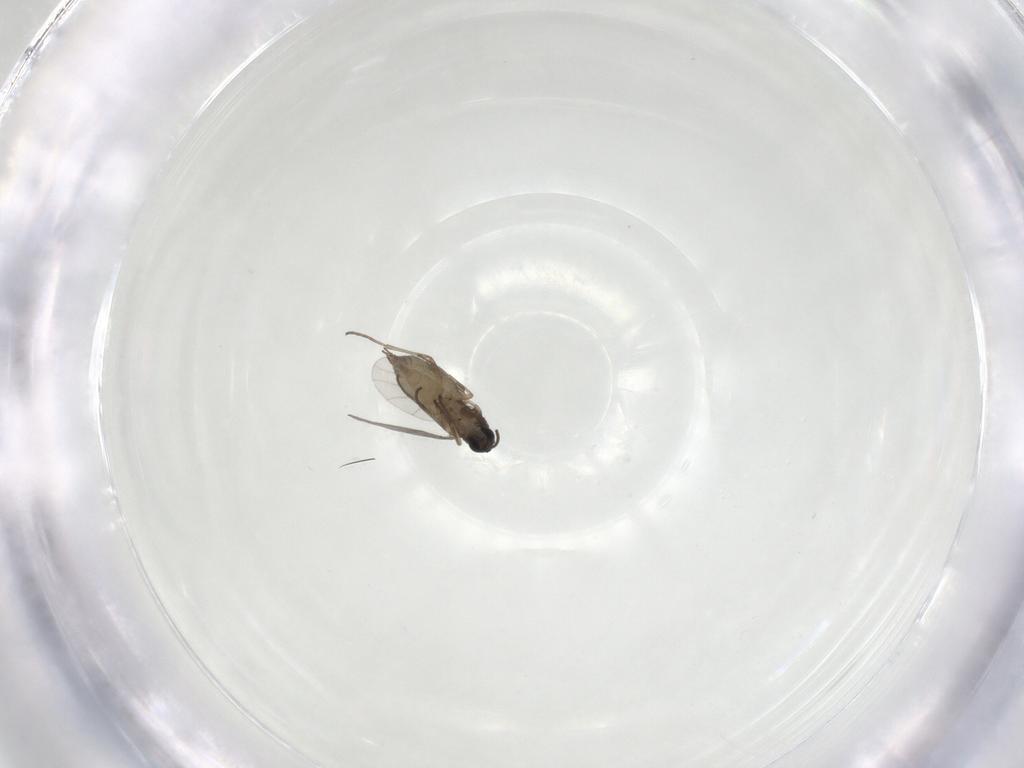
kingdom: Animalia
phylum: Arthropoda
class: Insecta
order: Diptera
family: Sciaridae
